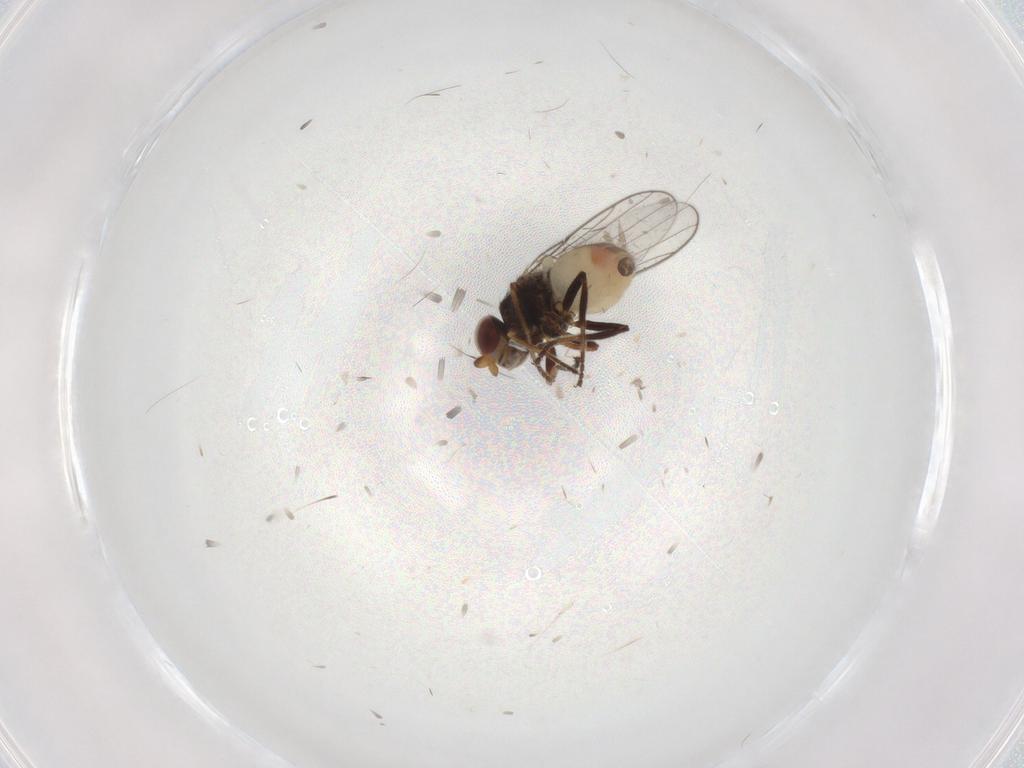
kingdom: Animalia
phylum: Arthropoda
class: Insecta
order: Diptera
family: Chloropidae
